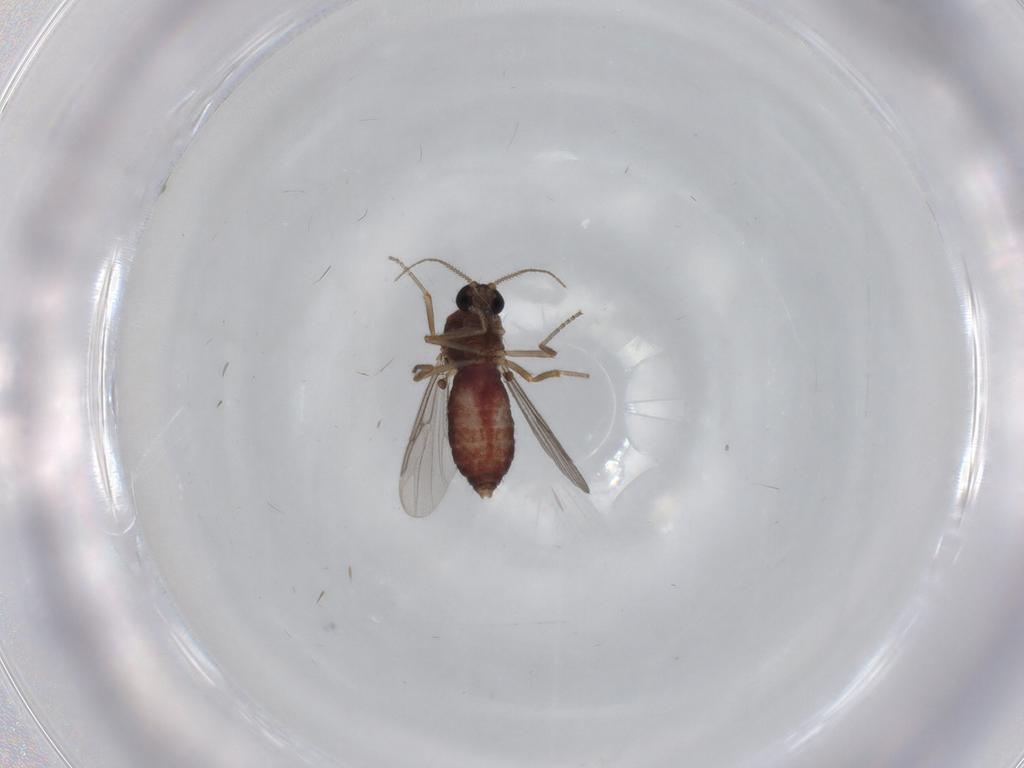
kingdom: Animalia
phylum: Arthropoda
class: Insecta
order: Diptera
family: Ceratopogonidae
